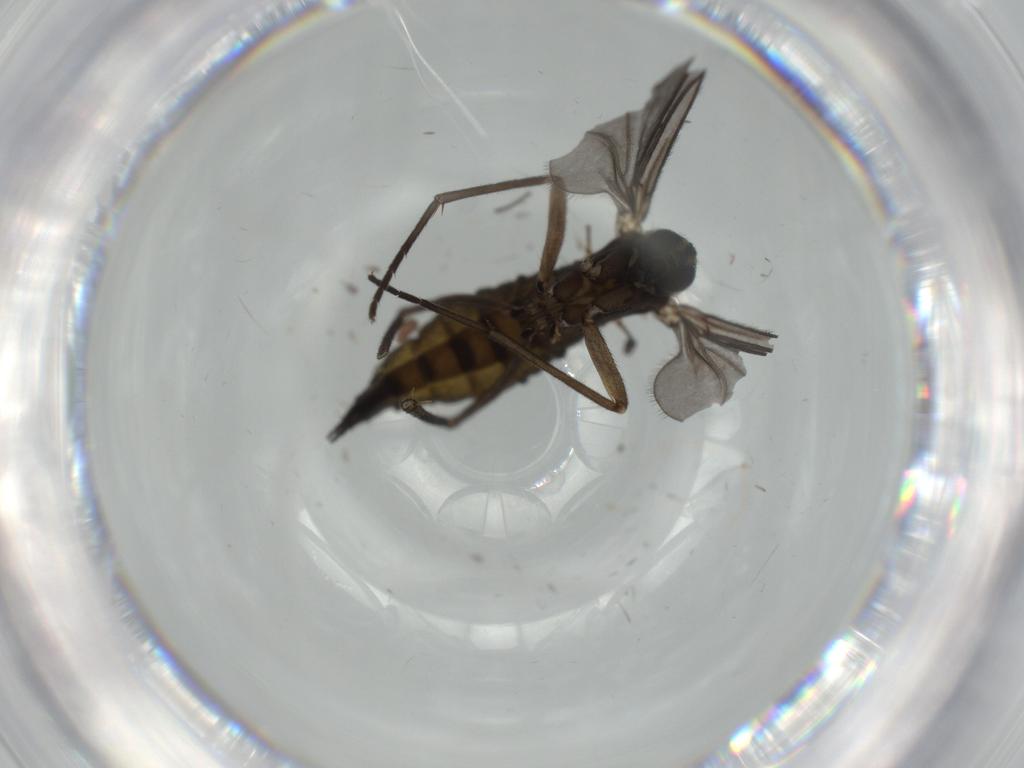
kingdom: Animalia
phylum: Arthropoda
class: Insecta
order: Diptera
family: Sciaridae
